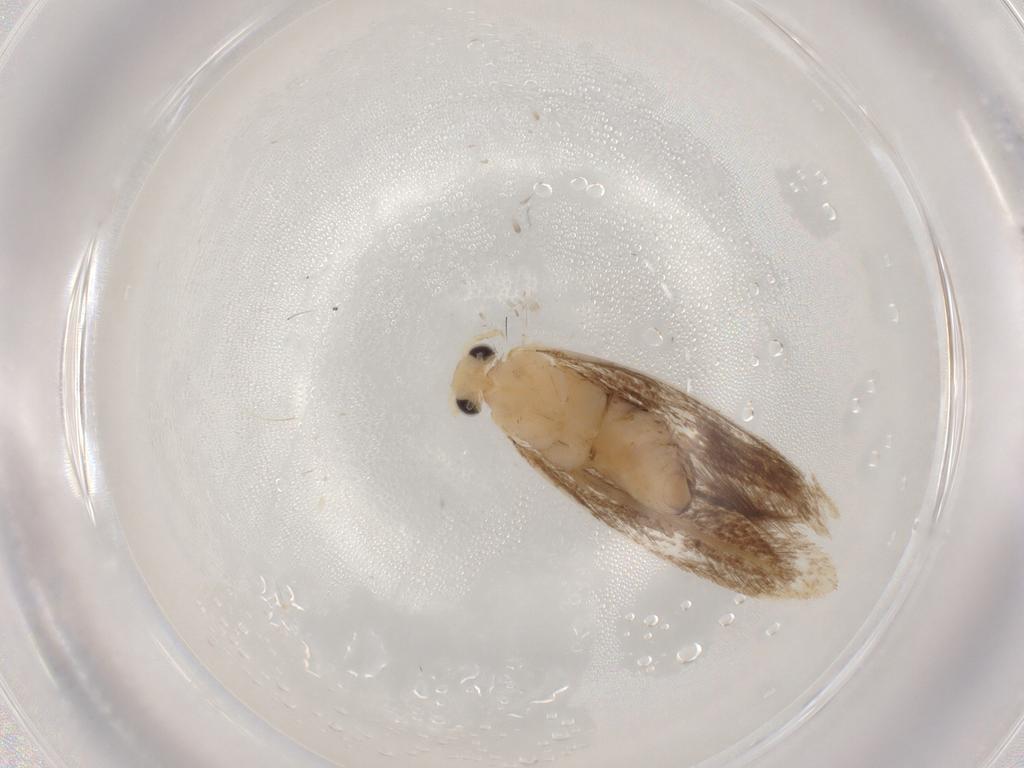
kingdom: Animalia
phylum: Arthropoda
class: Insecta
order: Lepidoptera
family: Dryadaulidae
